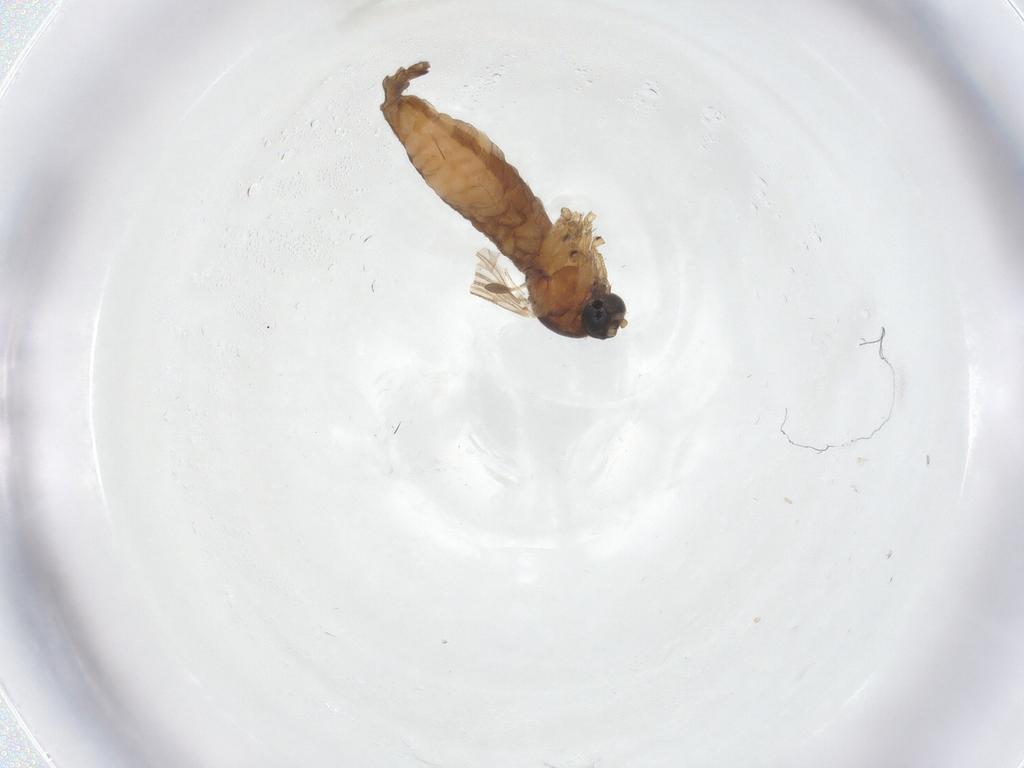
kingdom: Animalia
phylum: Arthropoda
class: Insecta
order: Diptera
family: Sciaridae
